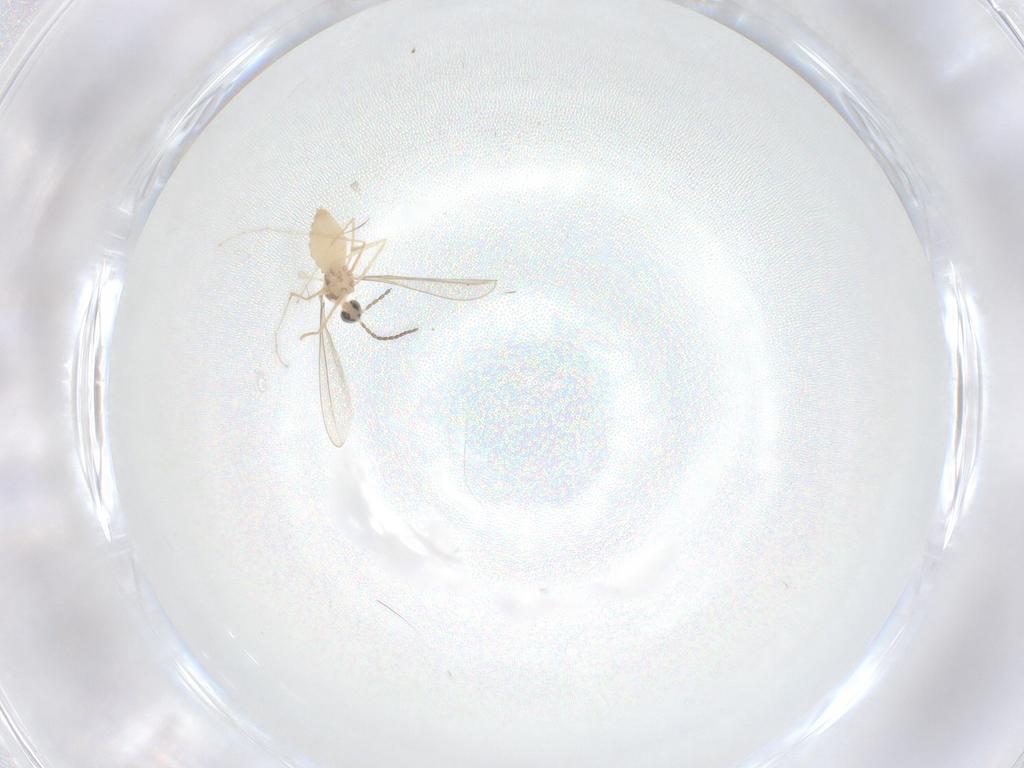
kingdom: Animalia
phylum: Arthropoda
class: Insecta
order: Diptera
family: Cecidomyiidae
